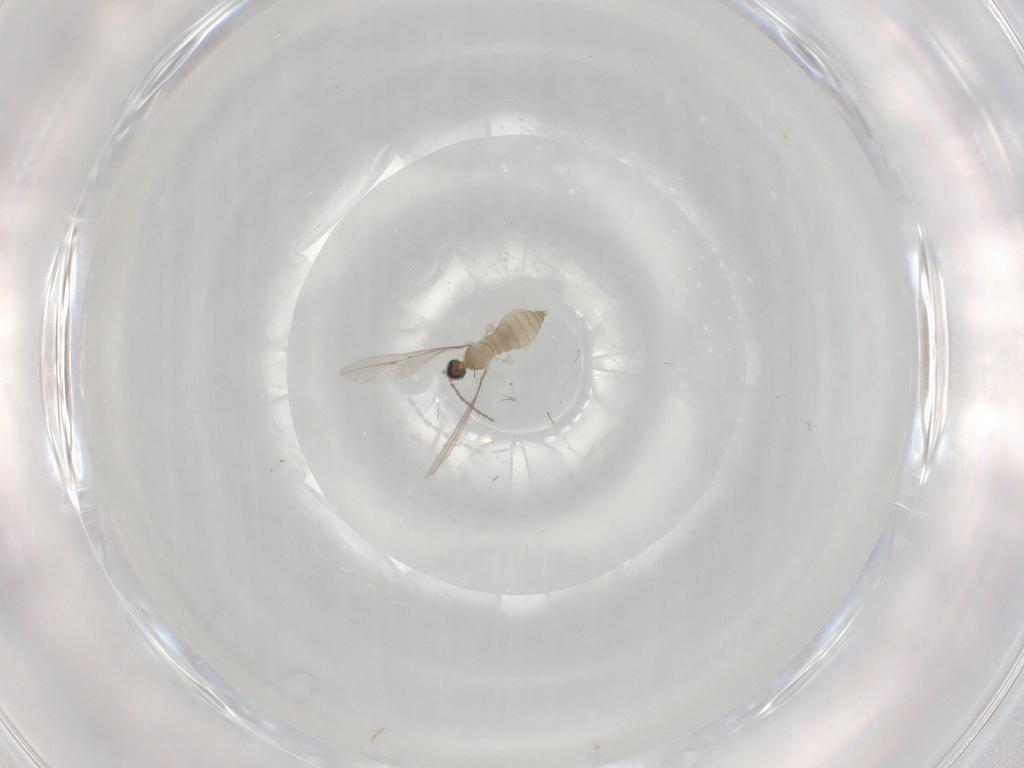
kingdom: Animalia
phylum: Arthropoda
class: Insecta
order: Diptera
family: Cecidomyiidae
